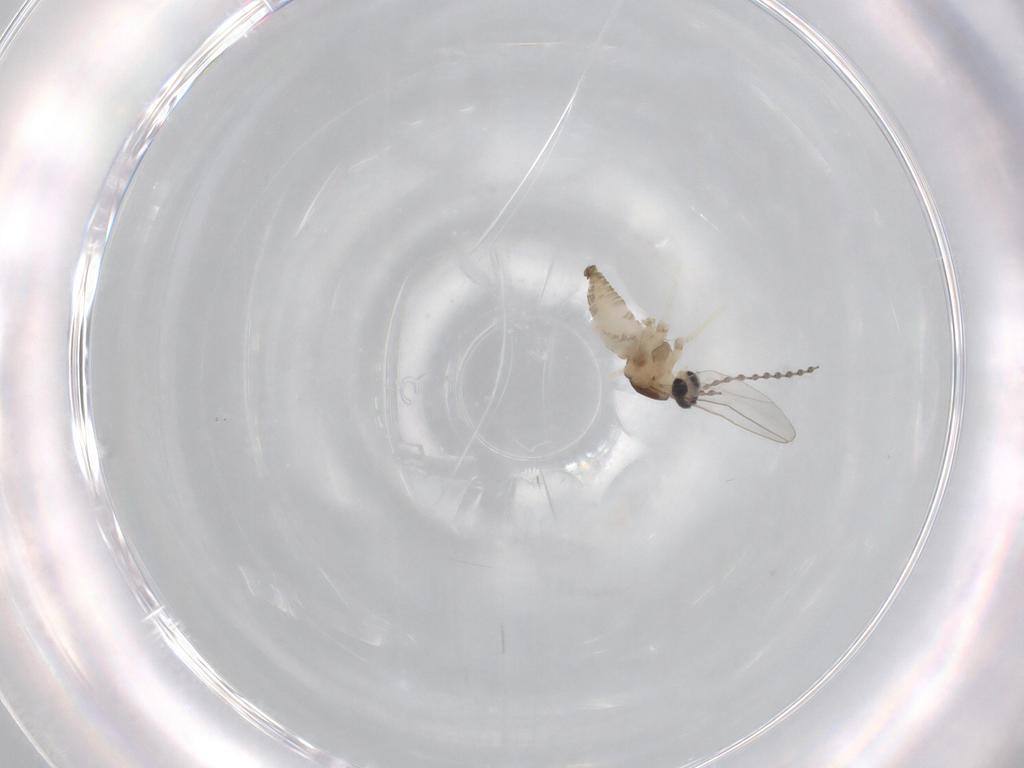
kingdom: Animalia
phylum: Arthropoda
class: Insecta
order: Diptera
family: Cecidomyiidae
